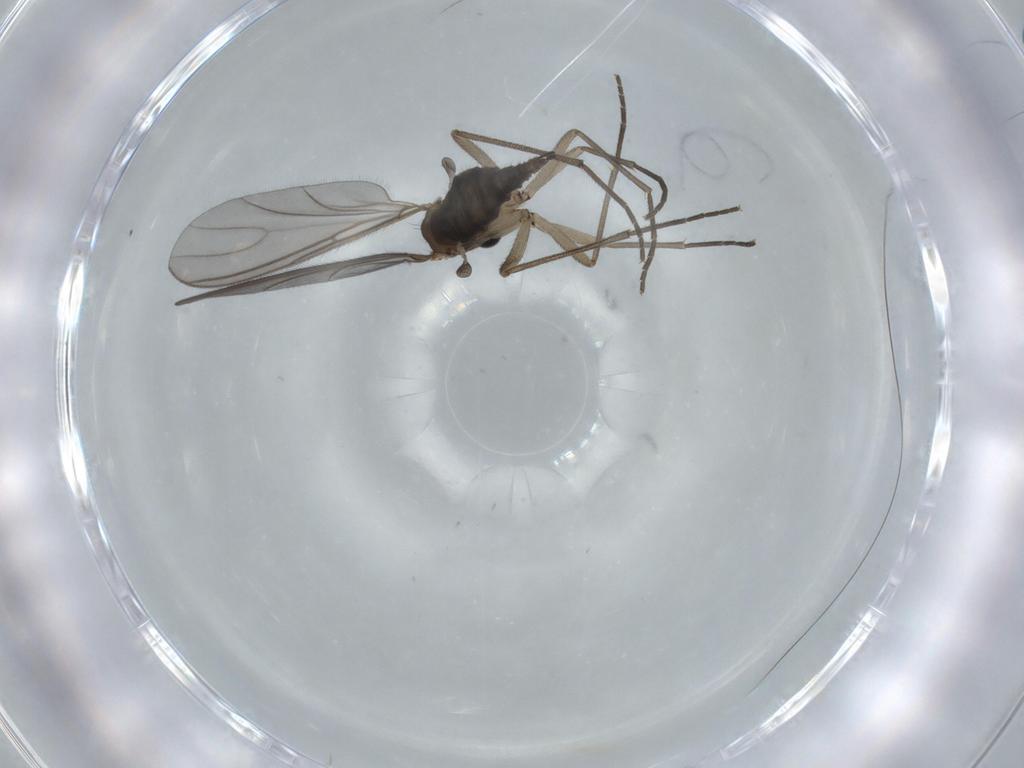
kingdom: Animalia
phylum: Arthropoda
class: Insecta
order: Diptera
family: Sciaridae
